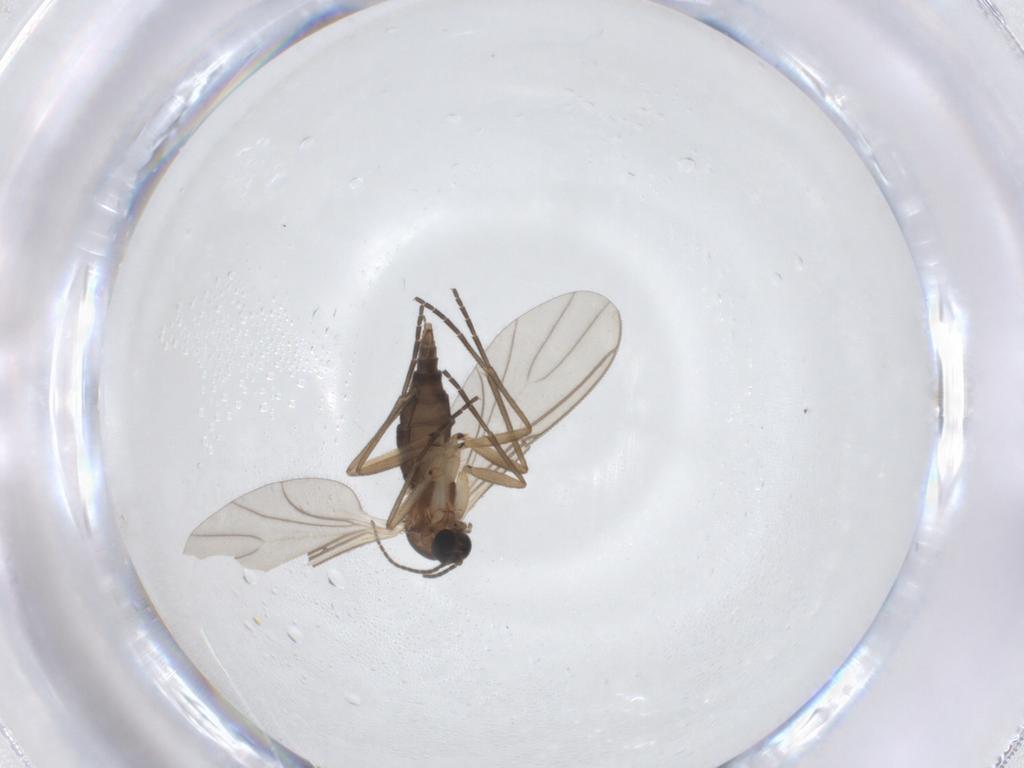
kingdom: Animalia
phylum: Arthropoda
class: Insecta
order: Diptera
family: Sciaridae
